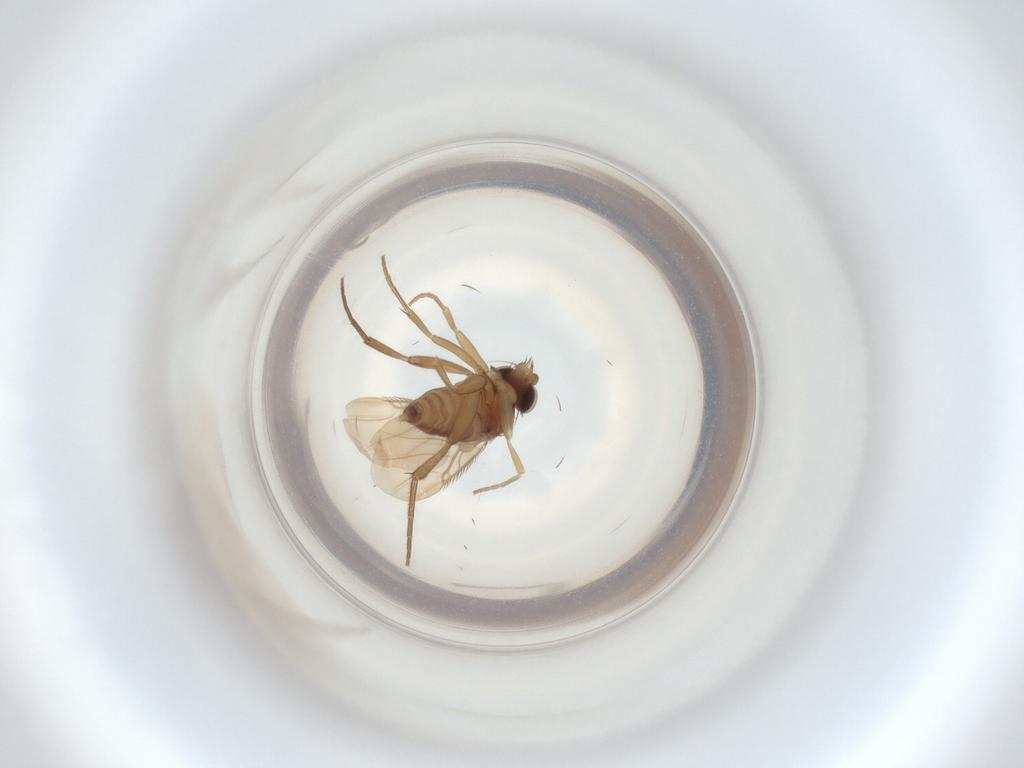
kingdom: Animalia
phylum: Arthropoda
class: Insecta
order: Diptera
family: Phoridae
